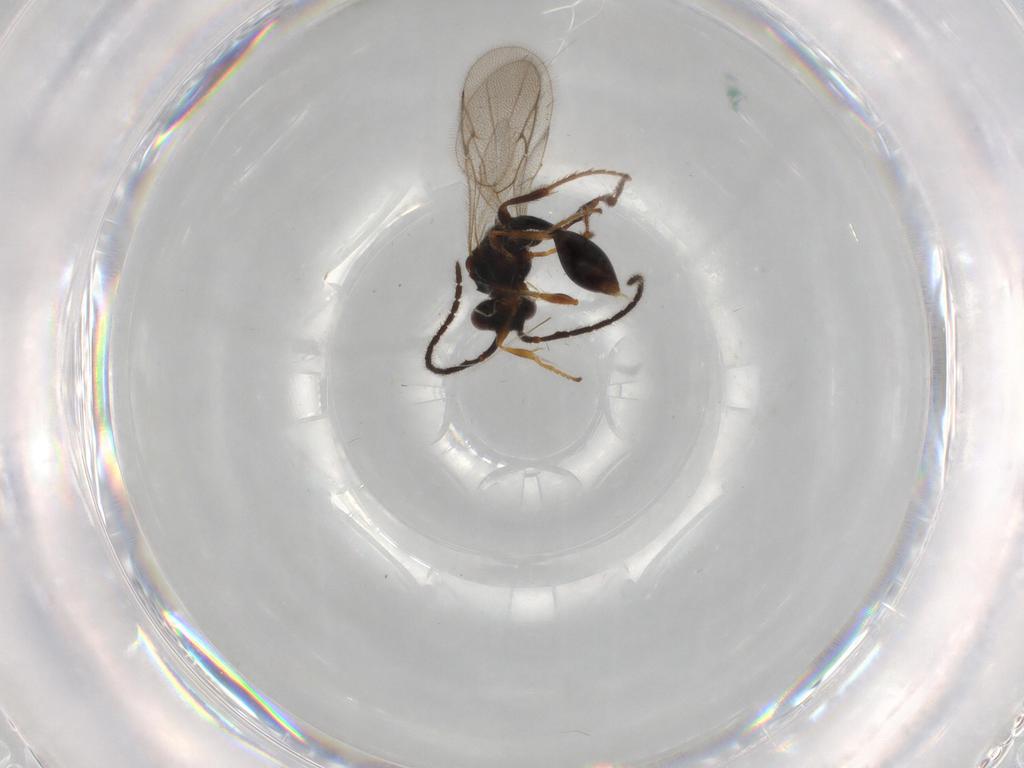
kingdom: Animalia
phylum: Arthropoda
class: Insecta
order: Hymenoptera
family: Diapriidae
